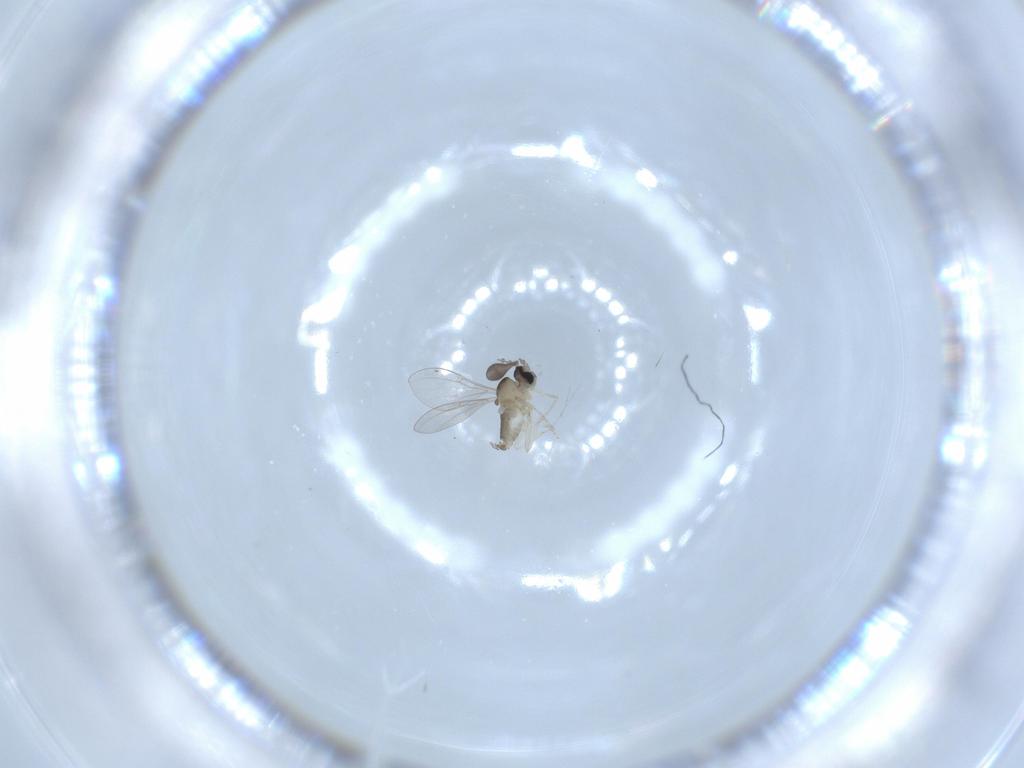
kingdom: Animalia
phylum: Arthropoda
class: Insecta
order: Diptera
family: Cecidomyiidae
